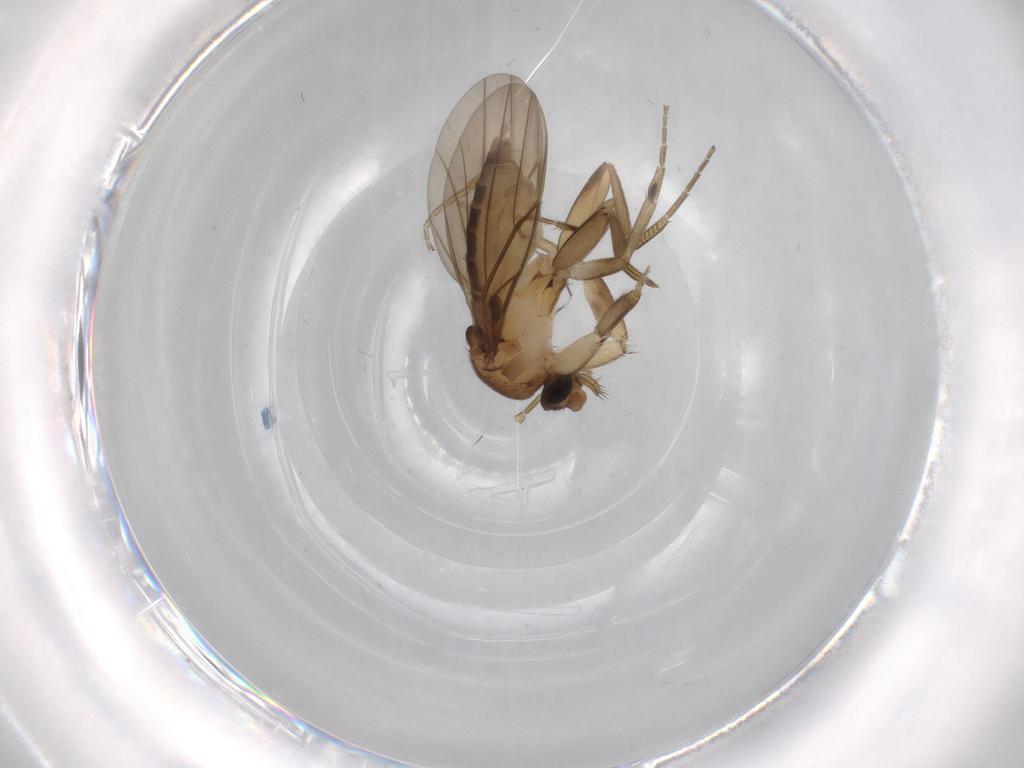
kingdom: Animalia
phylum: Arthropoda
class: Insecta
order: Diptera
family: Phoridae
